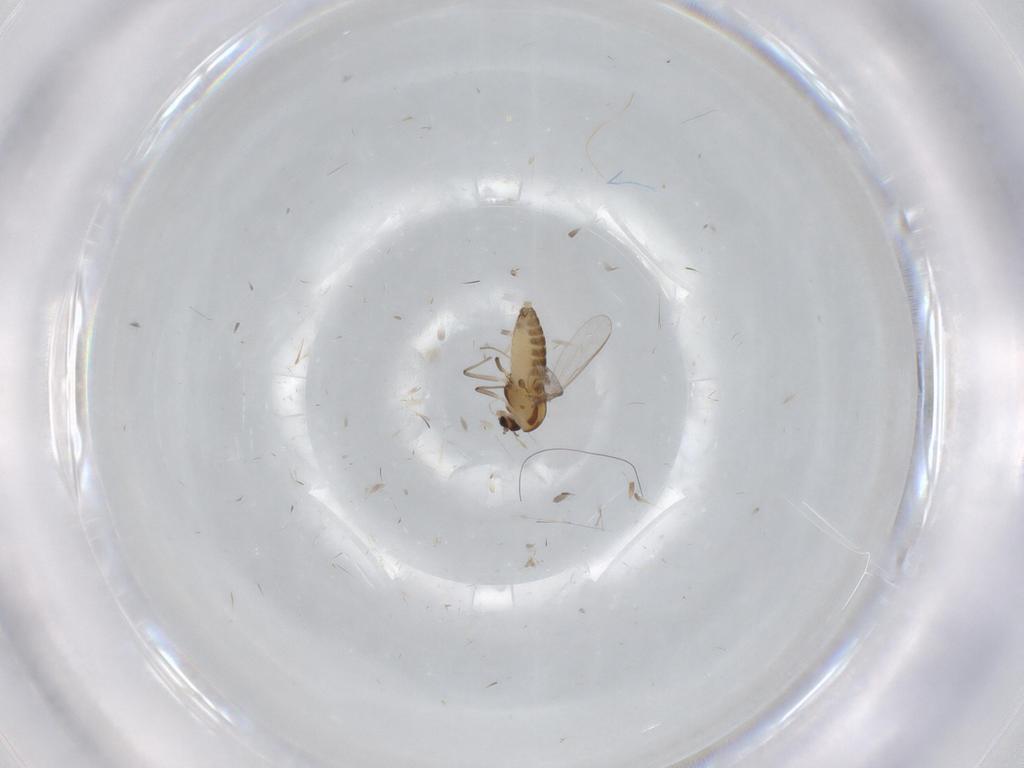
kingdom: Animalia
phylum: Arthropoda
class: Insecta
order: Diptera
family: Chironomidae
